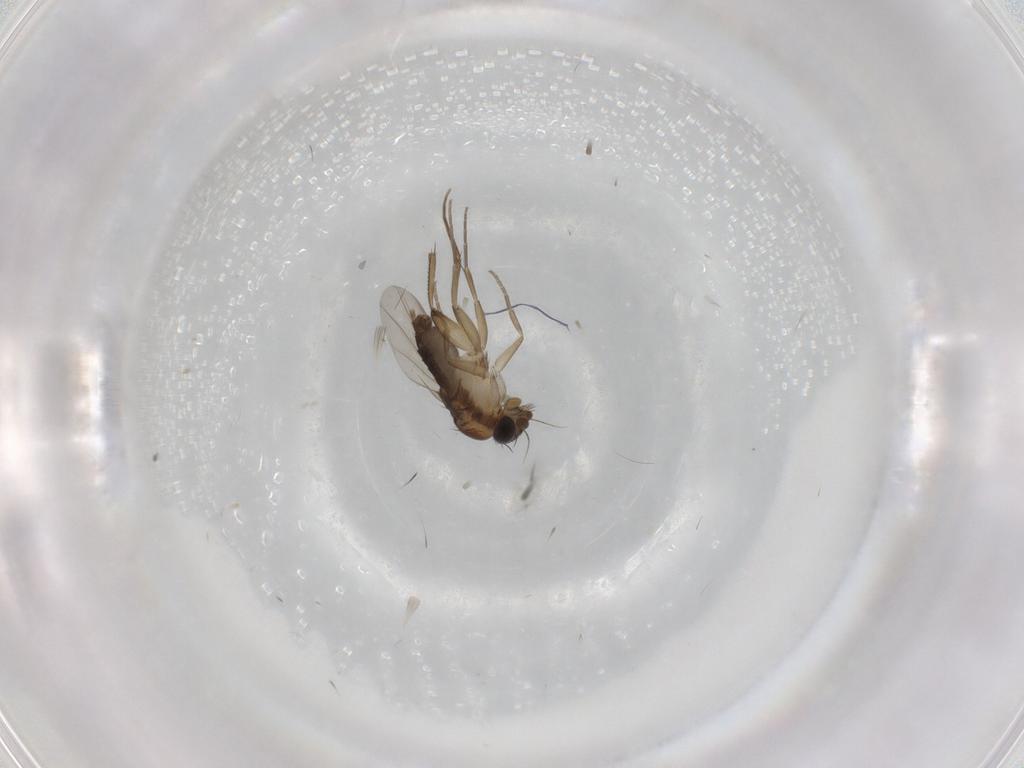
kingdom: Animalia
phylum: Arthropoda
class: Insecta
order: Diptera
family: Phoridae
